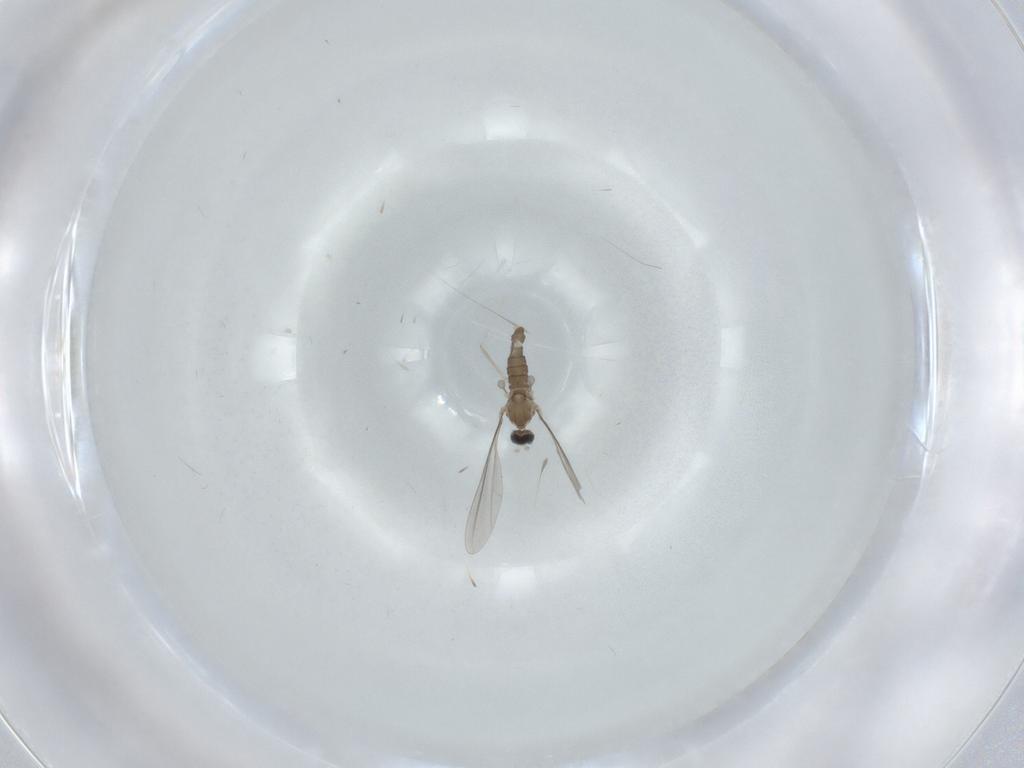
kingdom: Animalia
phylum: Arthropoda
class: Insecta
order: Diptera
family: Cecidomyiidae
